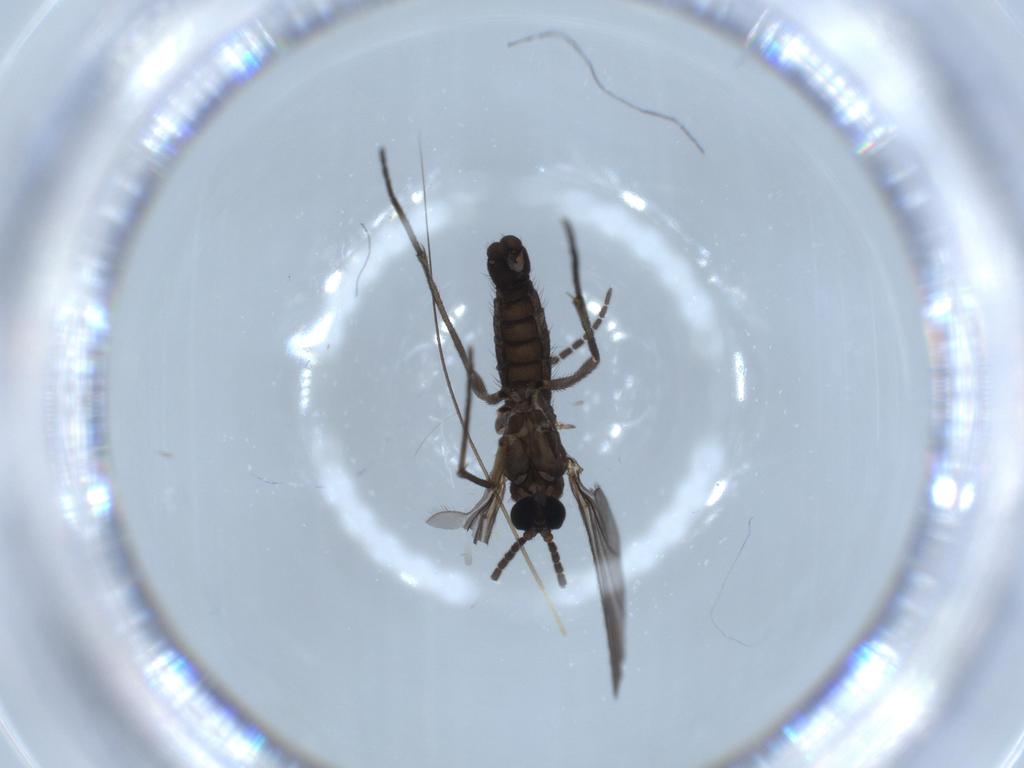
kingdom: Animalia
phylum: Arthropoda
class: Insecta
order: Diptera
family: Sciaridae
